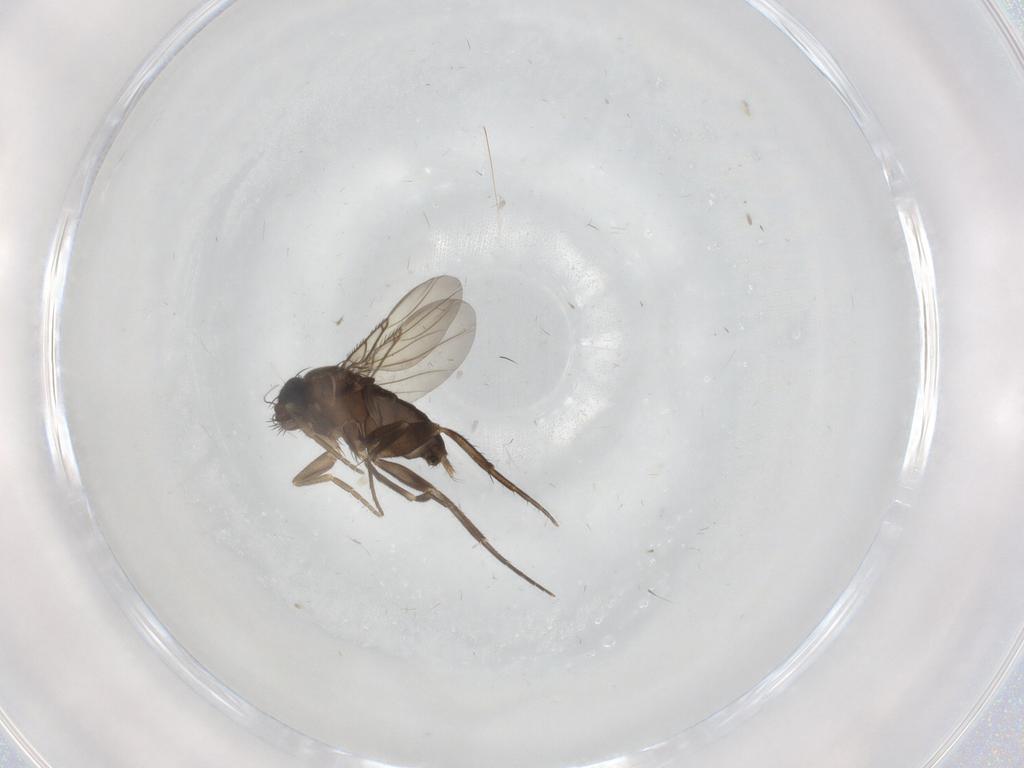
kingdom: Animalia
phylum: Arthropoda
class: Insecta
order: Diptera
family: Phoridae
